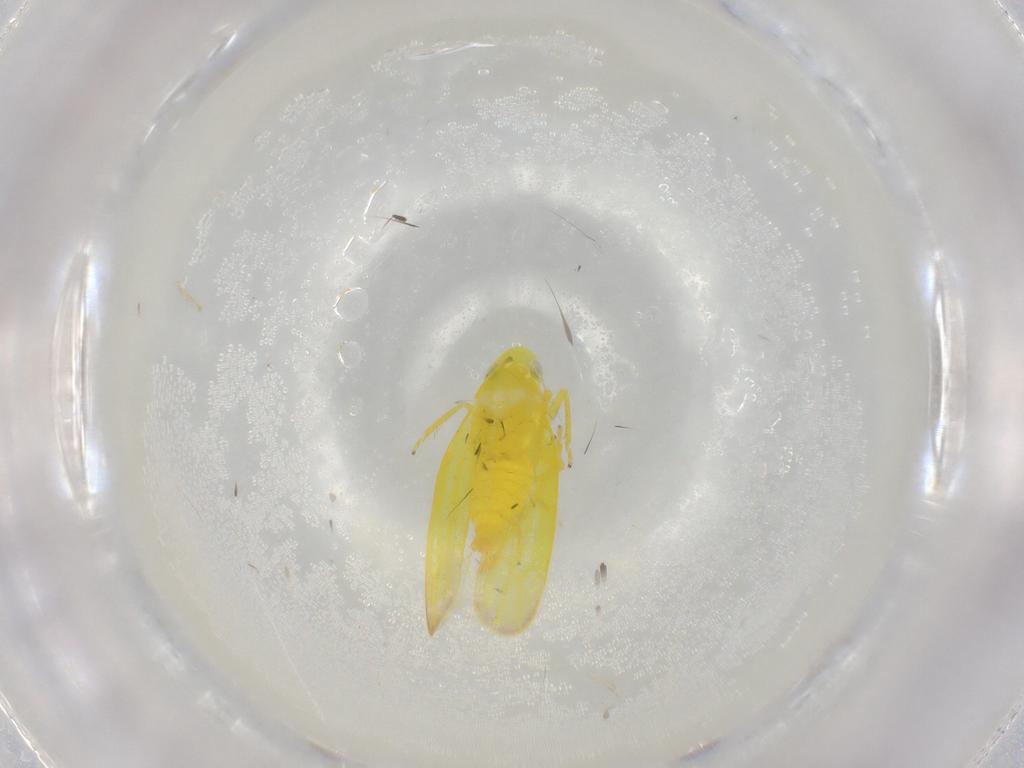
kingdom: Animalia
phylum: Arthropoda
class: Insecta
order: Hemiptera
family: Cicadellidae
